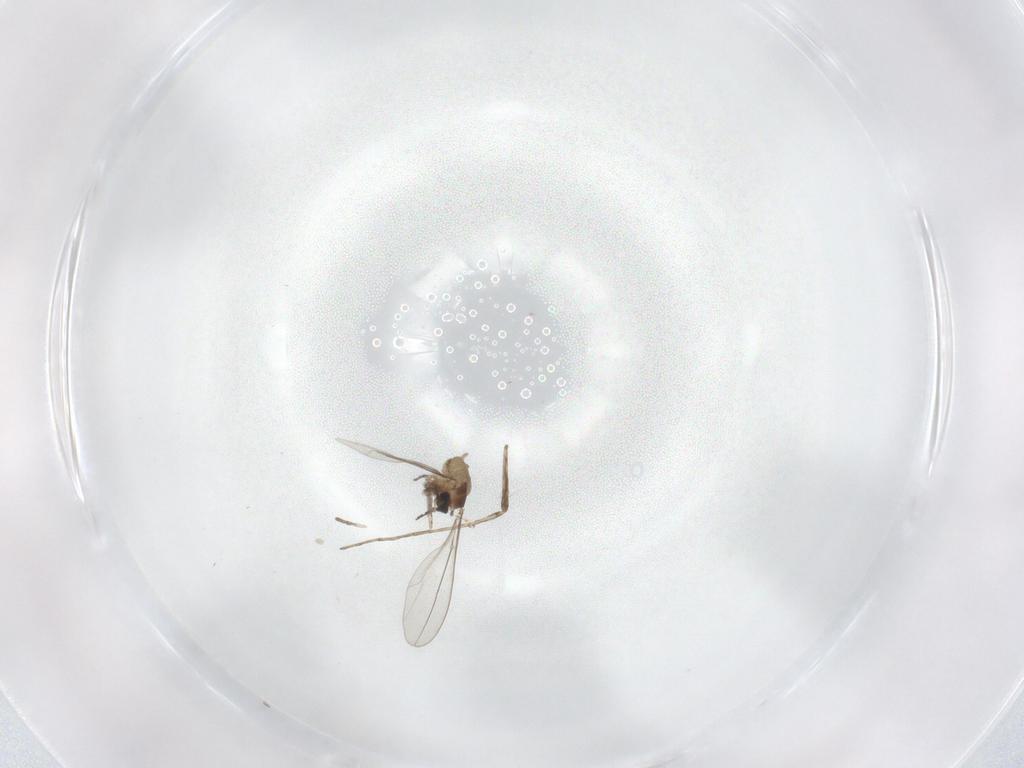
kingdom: Animalia
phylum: Arthropoda
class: Insecta
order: Diptera
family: Cecidomyiidae
